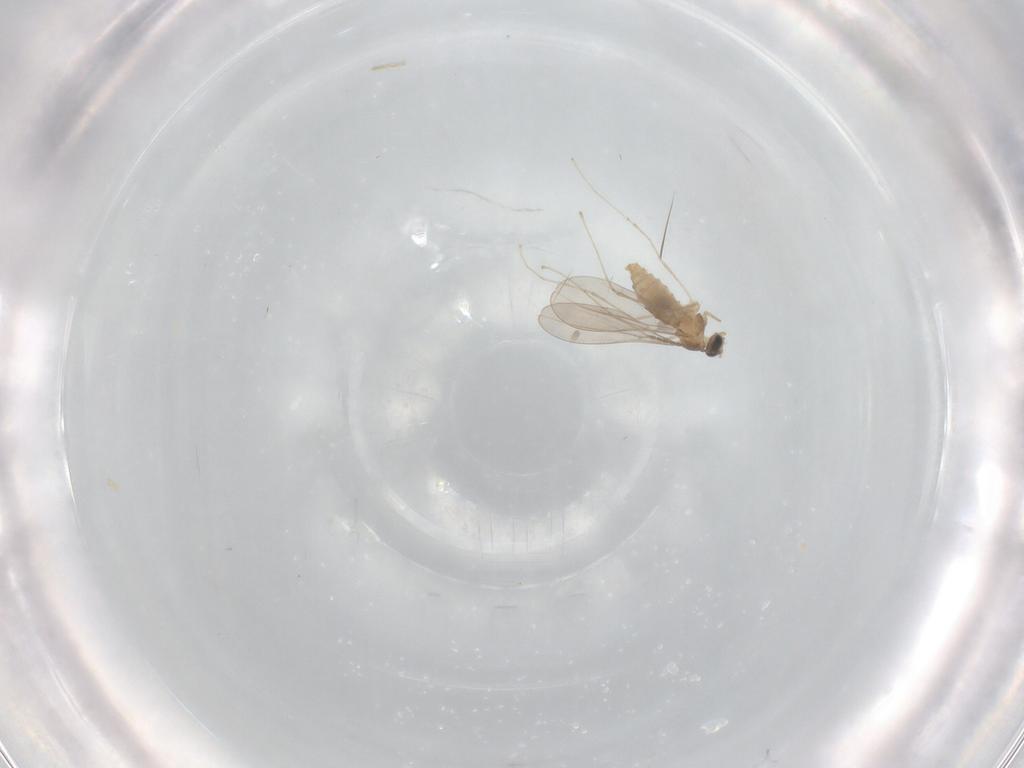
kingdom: Animalia
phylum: Arthropoda
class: Insecta
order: Diptera
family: Cecidomyiidae
